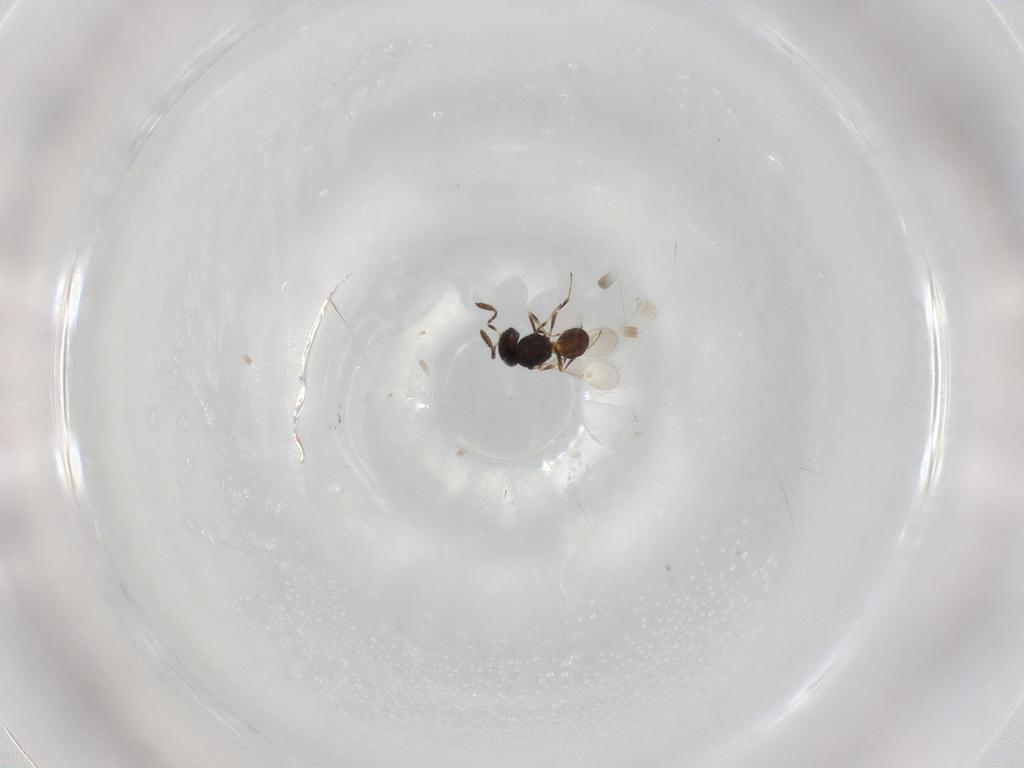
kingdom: Animalia
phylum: Arthropoda
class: Insecta
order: Hymenoptera
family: Scelionidae
